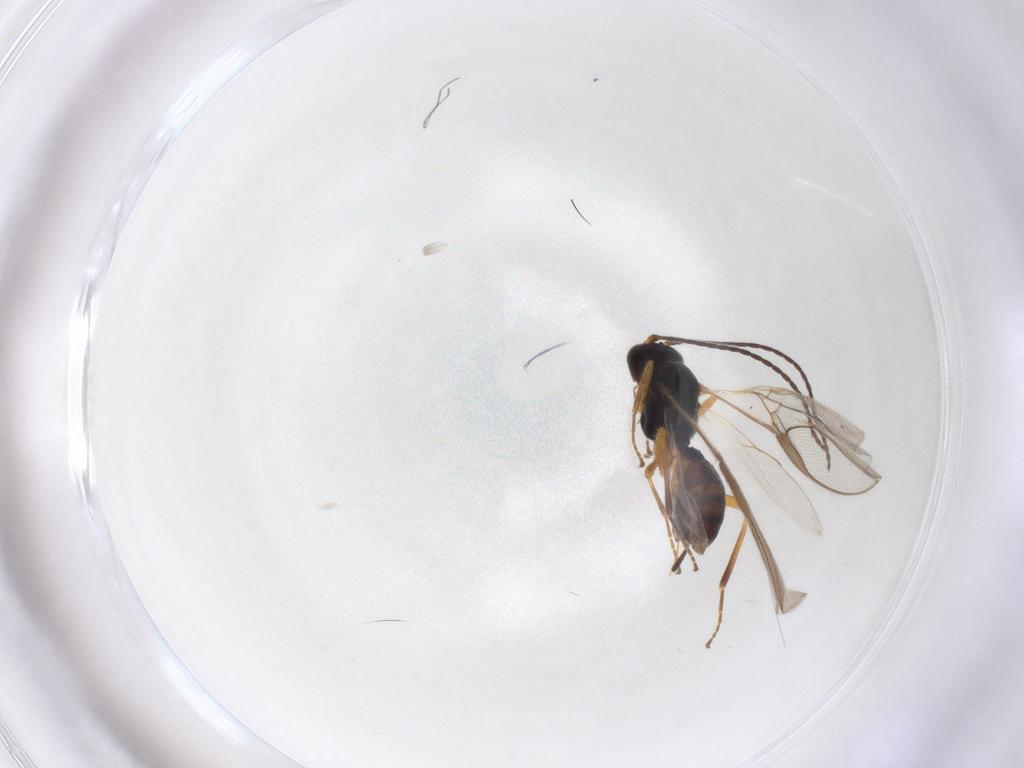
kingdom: Animalia
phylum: Arthropoda
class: Insecta
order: Hymenoptera
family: Braconidae
